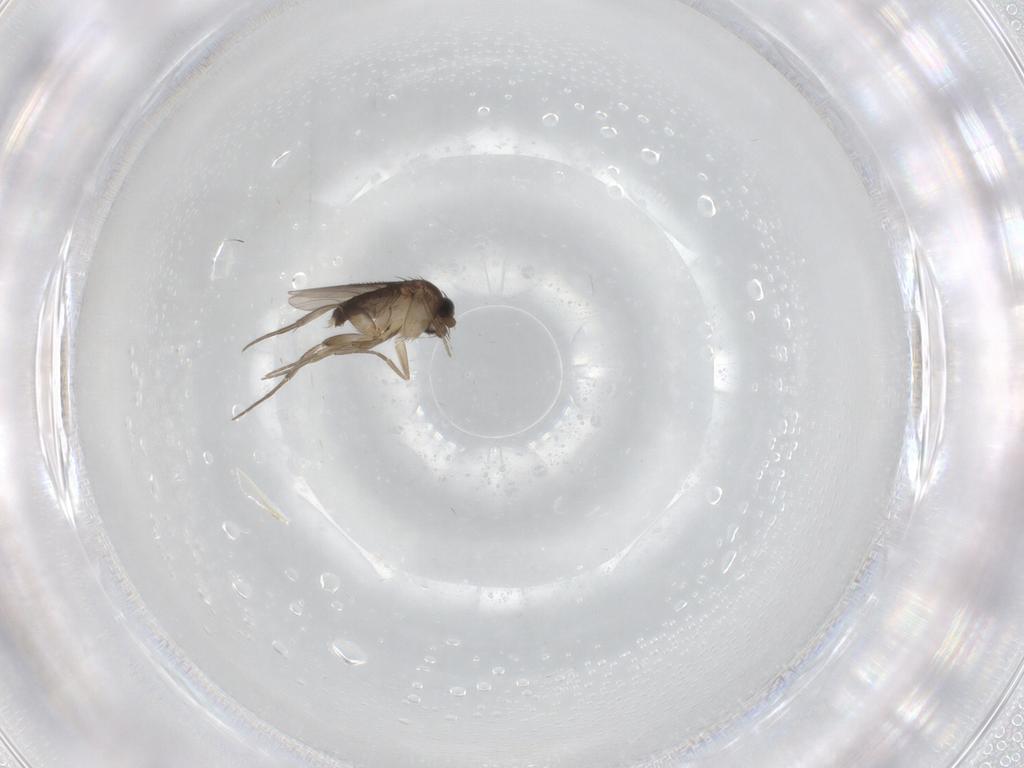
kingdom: Animalia
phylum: Arthropoda
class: Insecta
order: Diptera
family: Phoridae
